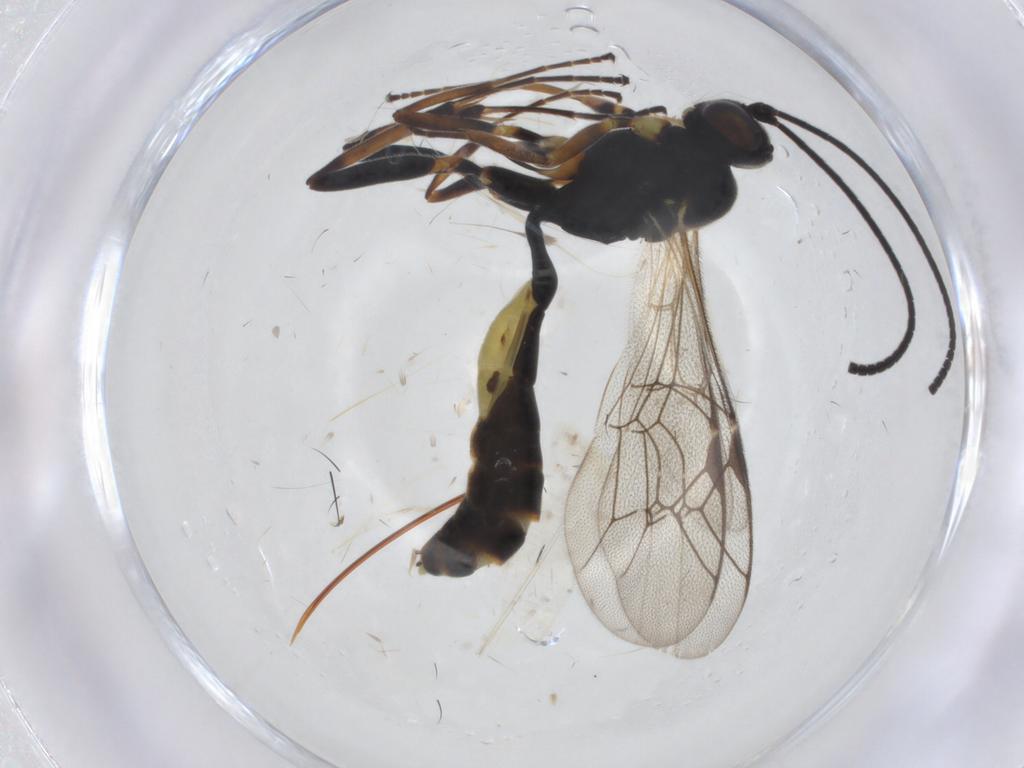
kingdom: Animalia
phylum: Arthropoda
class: Insecta
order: Hymenoptera
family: Ichneumonidae
